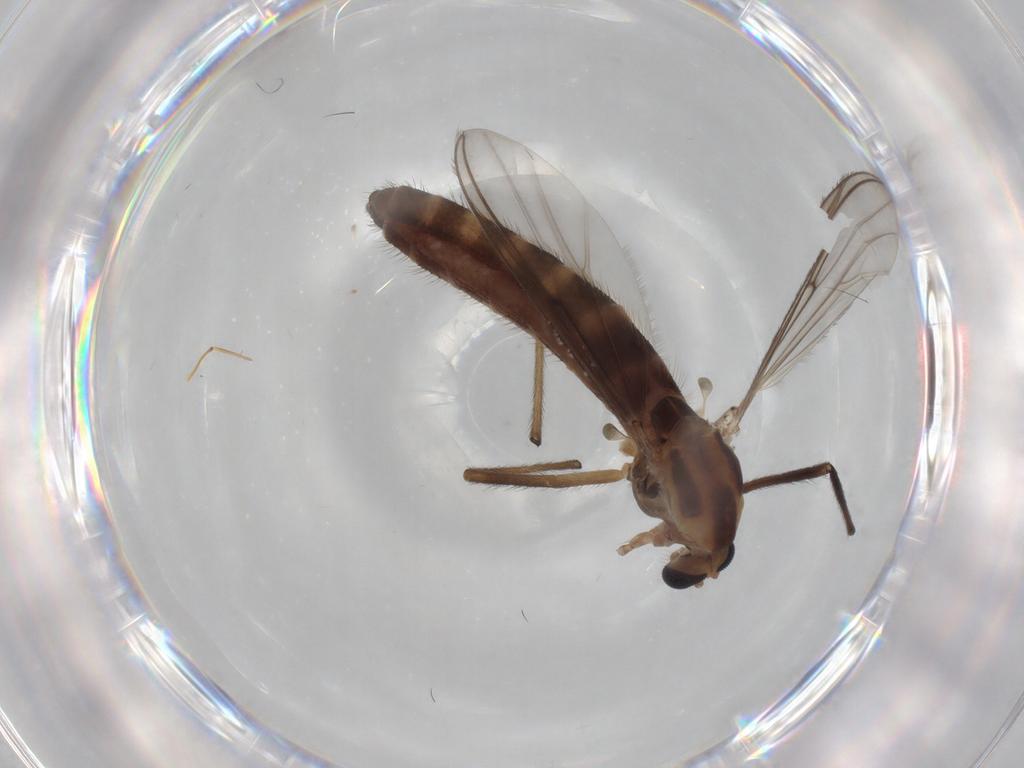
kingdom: Animalia
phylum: Arthropoda
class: Insecta
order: Diptera
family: Chironomidae
